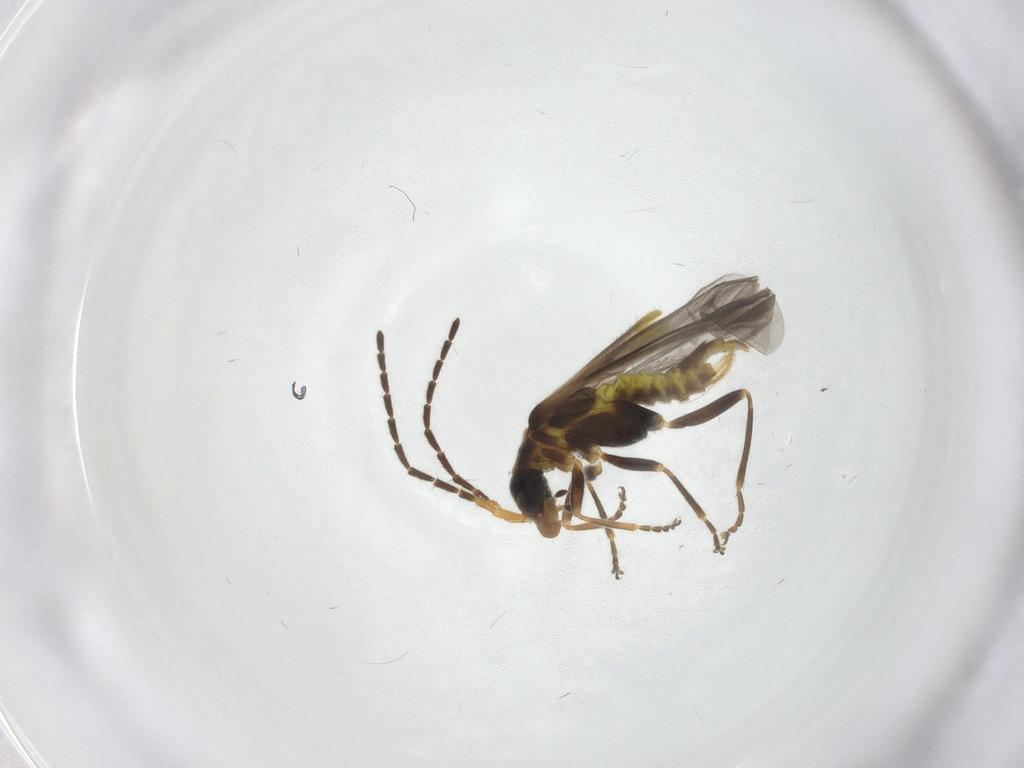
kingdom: Animalia
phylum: Arthropoda
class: Insecta
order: Coleoptera
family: Cantharidae
